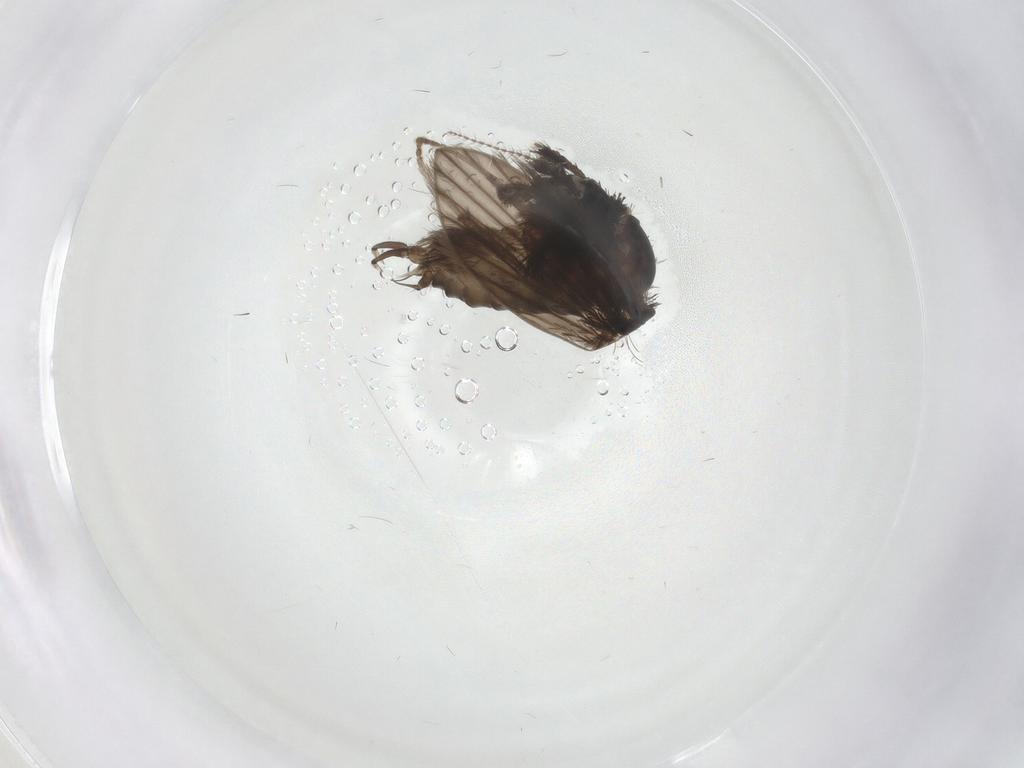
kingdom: Animalia
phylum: Arthropoda
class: Insecta
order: Diptera
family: Psychodidae
